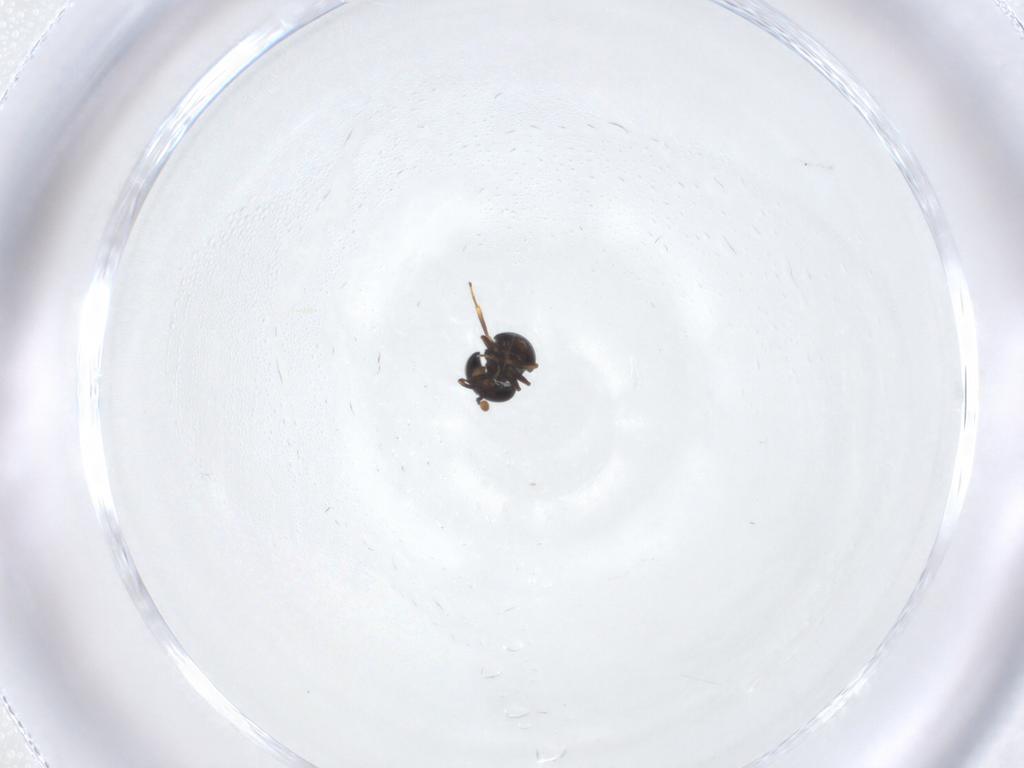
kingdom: Animalia
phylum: Arthropoda
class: Insecta
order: Hymenoptera
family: Scelionidae
